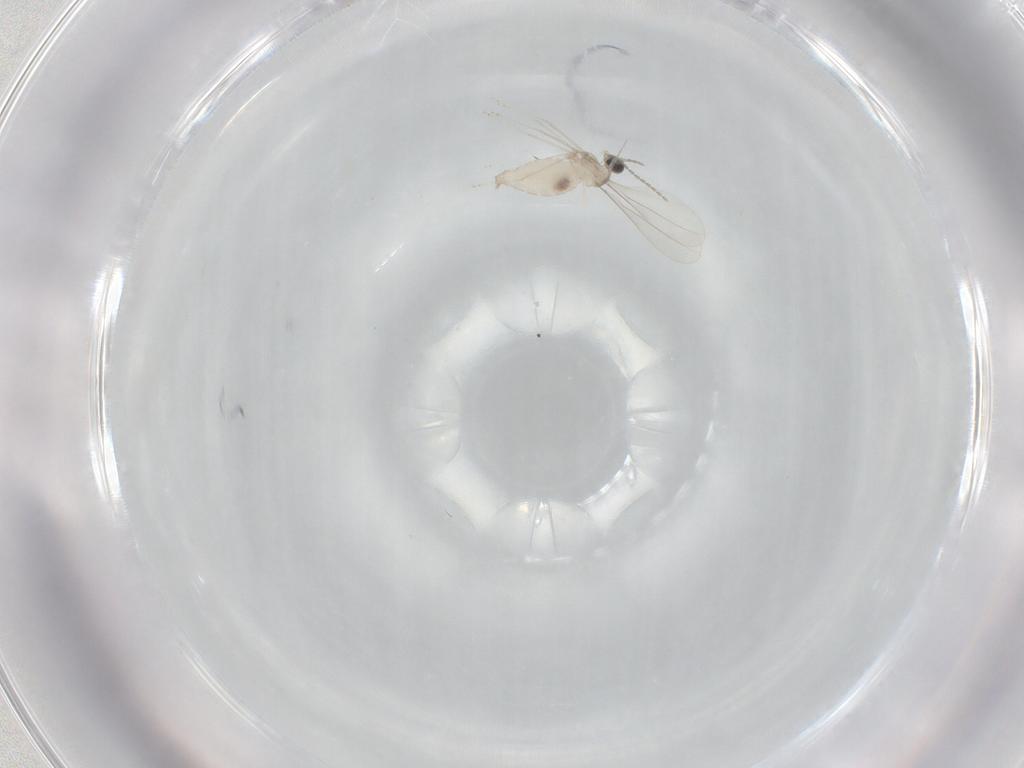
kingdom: Animalia
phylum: Arthropoda
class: Insecta
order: Diptera
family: Cecidomyiidae
